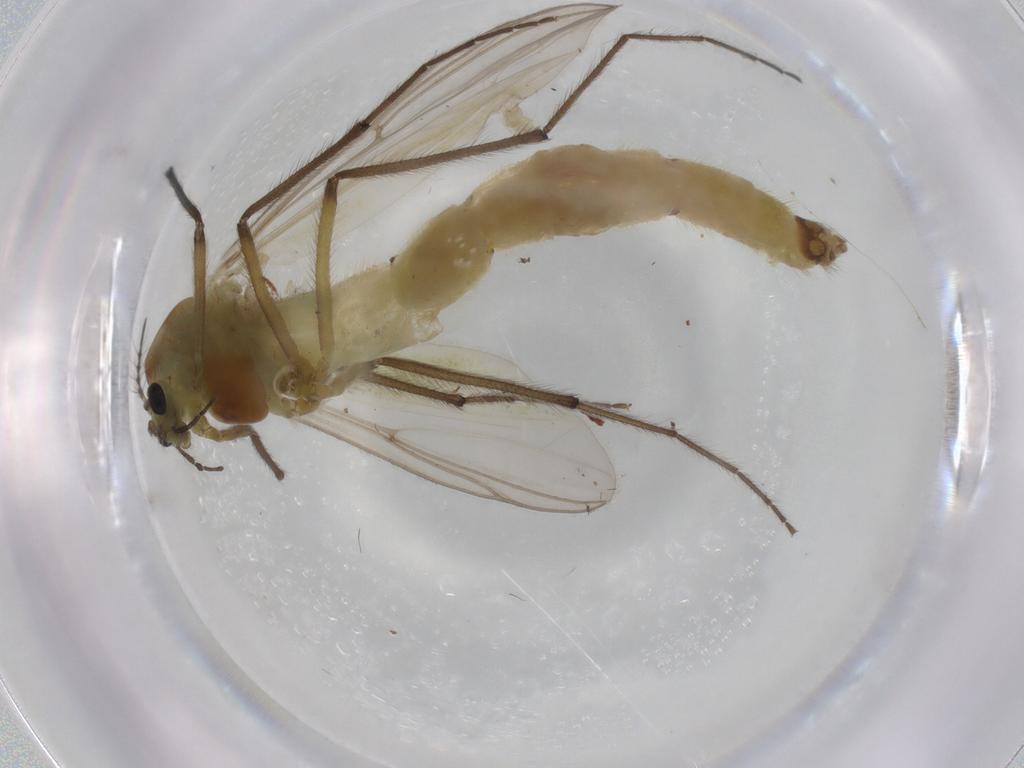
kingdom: Animalia
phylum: Arthropoda
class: Insecta
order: Diptera
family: Chironomidae
